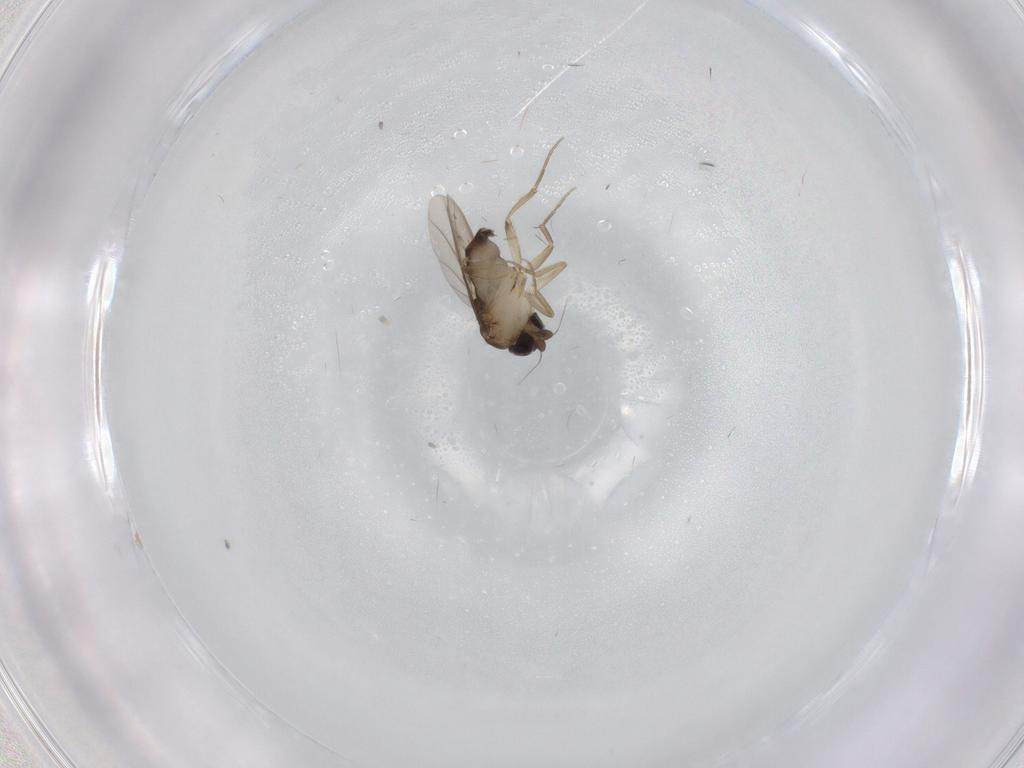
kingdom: Animalia
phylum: Arthropoda
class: Insecta
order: Diptera
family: Phoridae
